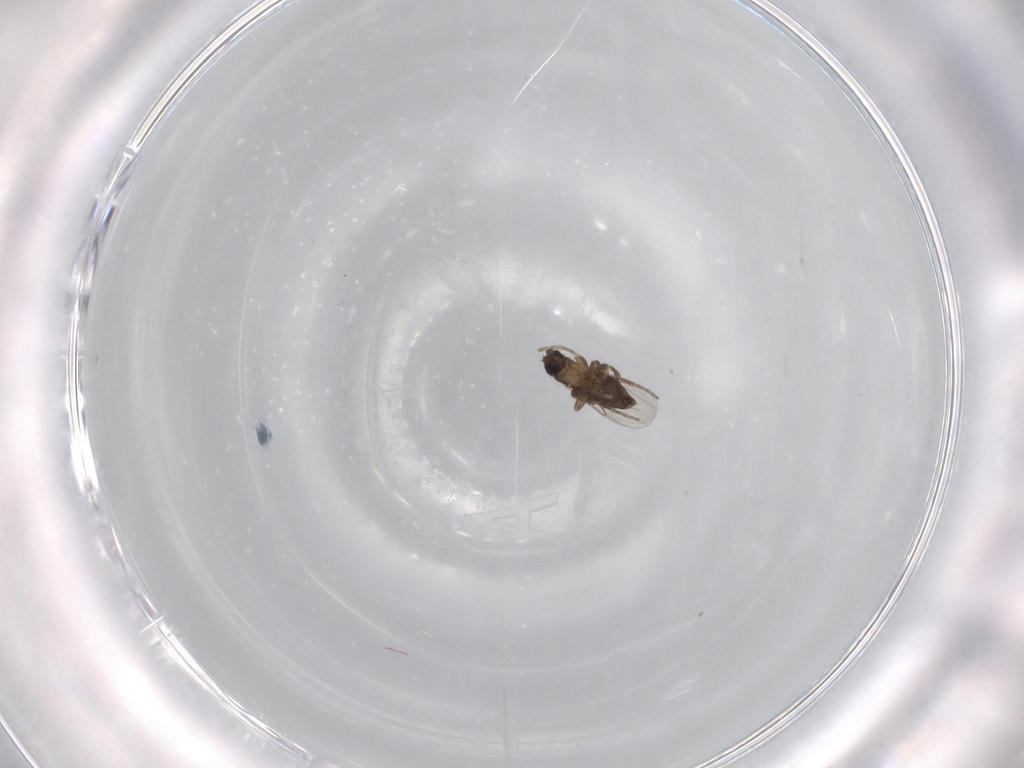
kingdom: Animalia
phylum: Arthropoda
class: Insecta
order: Diptera
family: Phoridae
